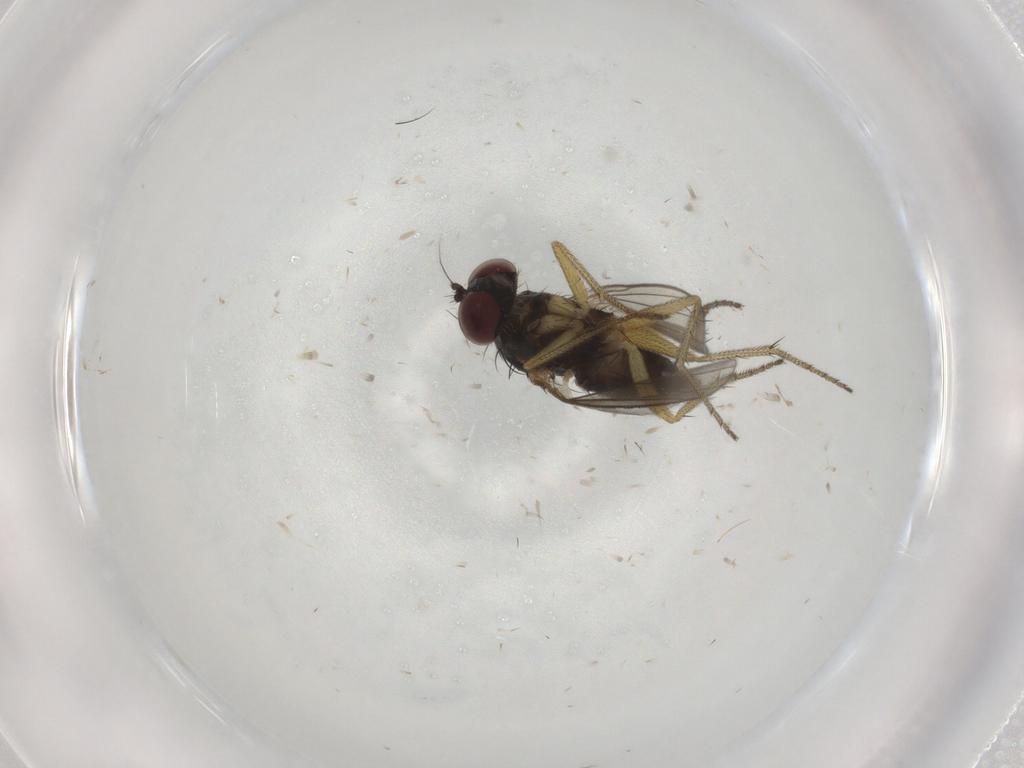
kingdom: Animalia
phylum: Arthropoda
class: Insecta
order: Diptera
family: Dolichopodidae
